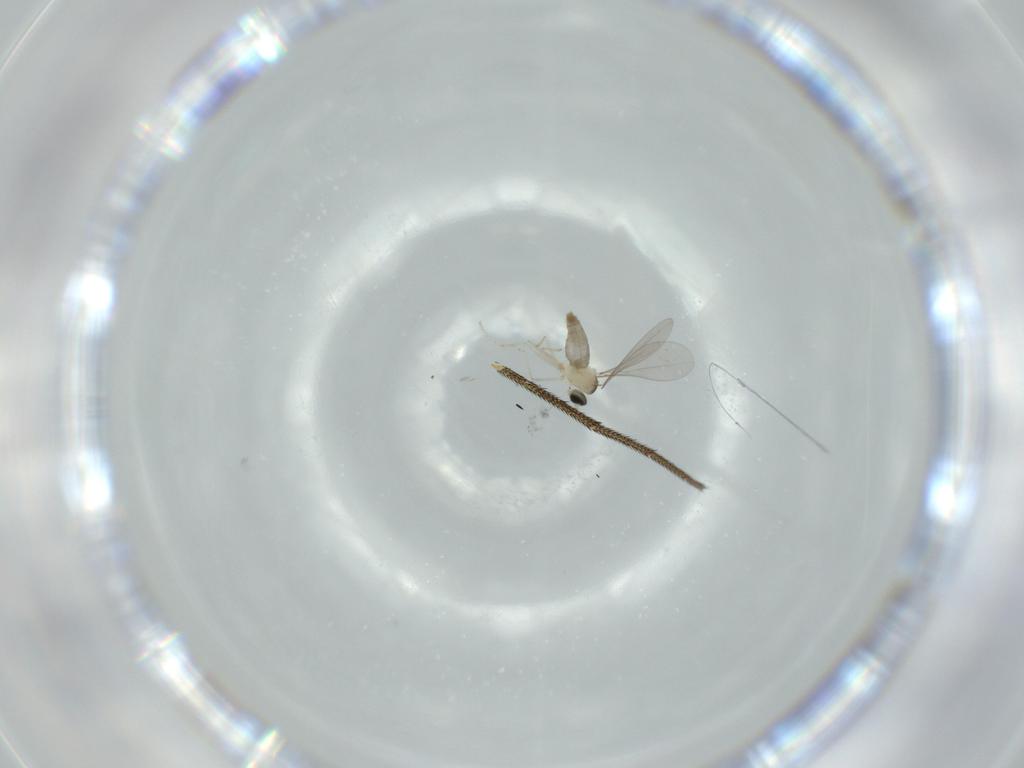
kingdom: Animalia
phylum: Arthropoda
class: Insecta
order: Diptera
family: Cecidomyiidae
